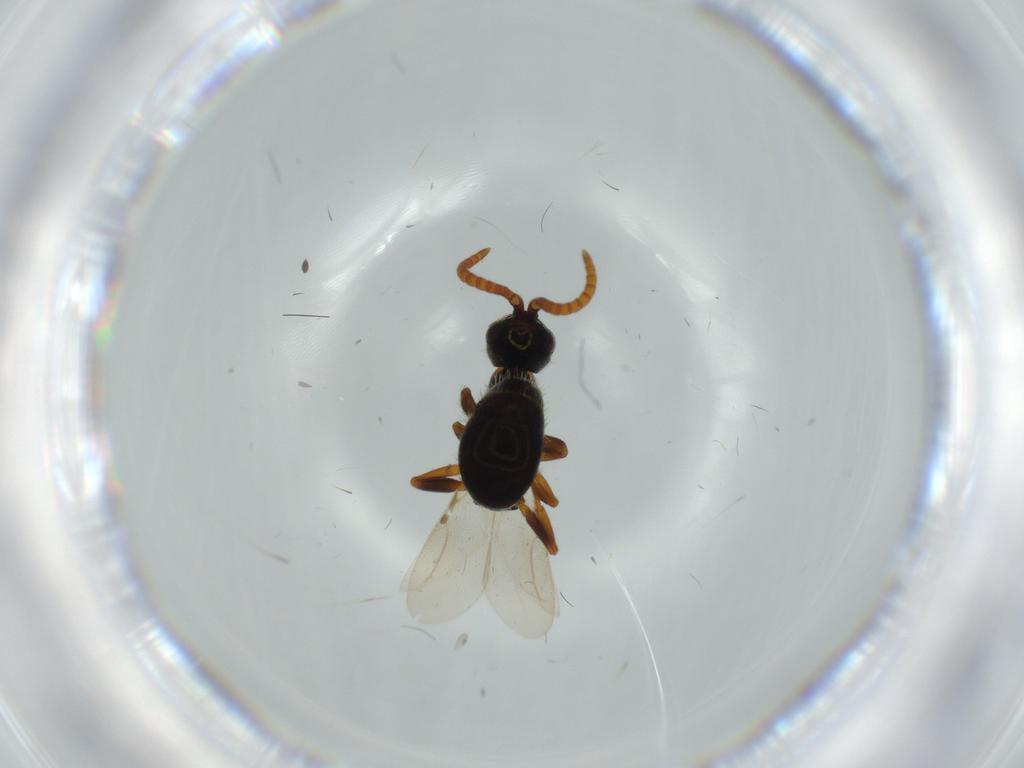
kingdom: Animalia
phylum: Arthropoda
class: Insecta
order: Hymenoptera
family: Bethylidae
